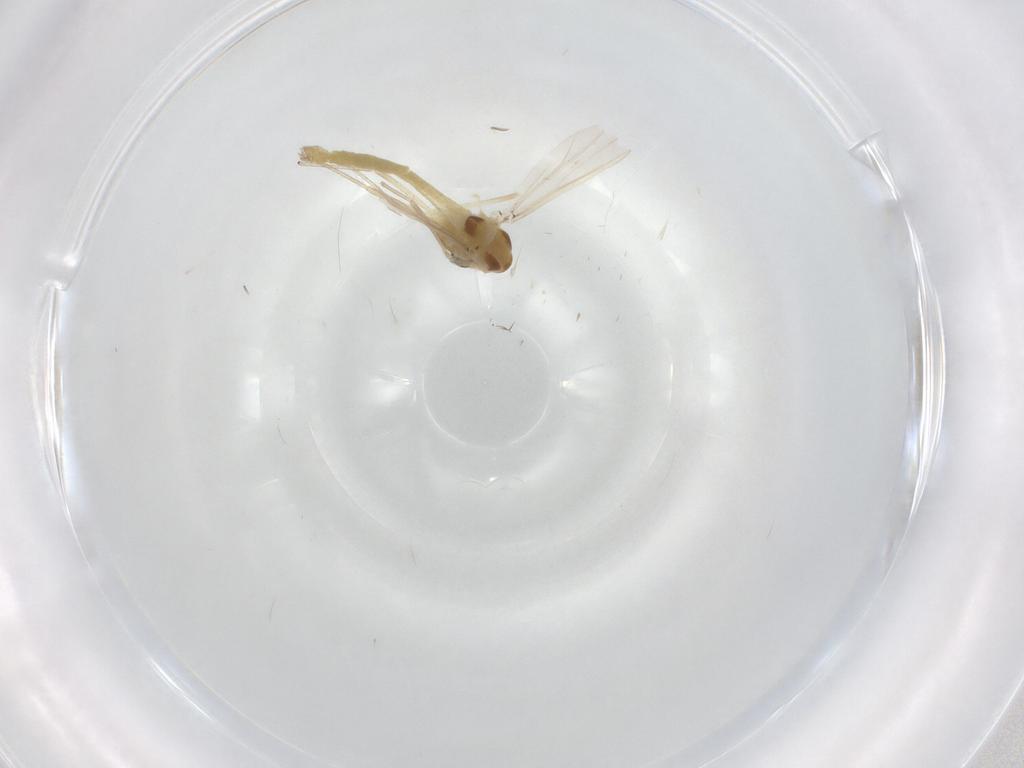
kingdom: Animalia
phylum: Arthropoda
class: Insecta
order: Diptera
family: Chironomidae
